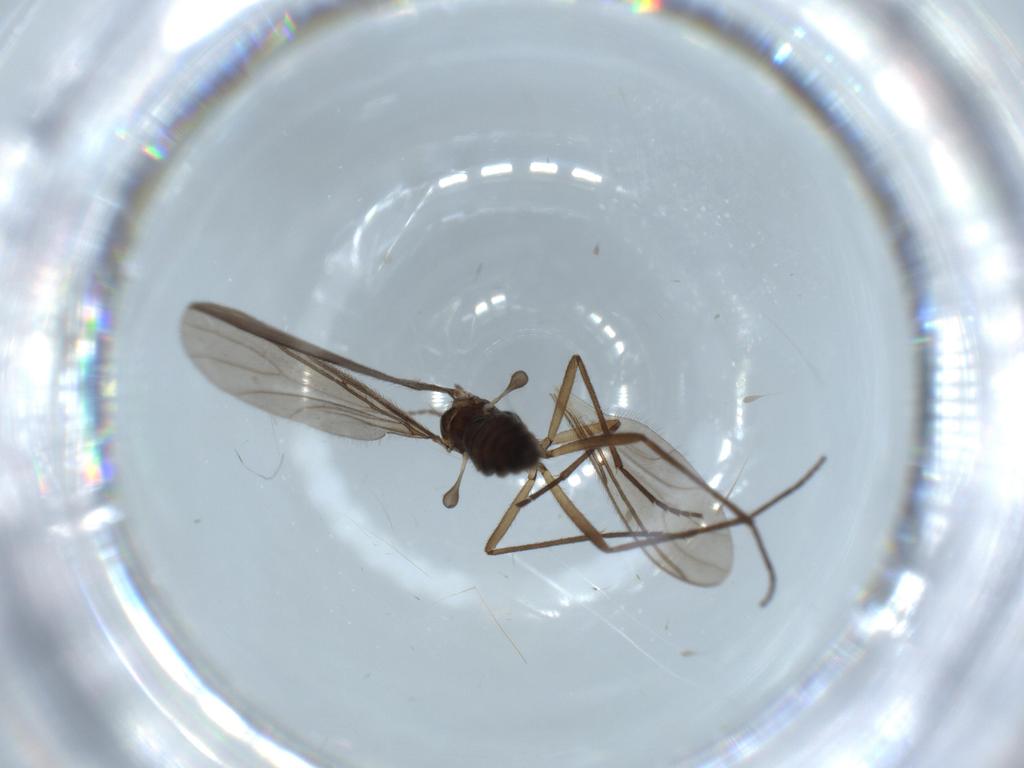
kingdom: Animalia
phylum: Arthropoda
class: Insecta
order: Diptera
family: Sciaridae
